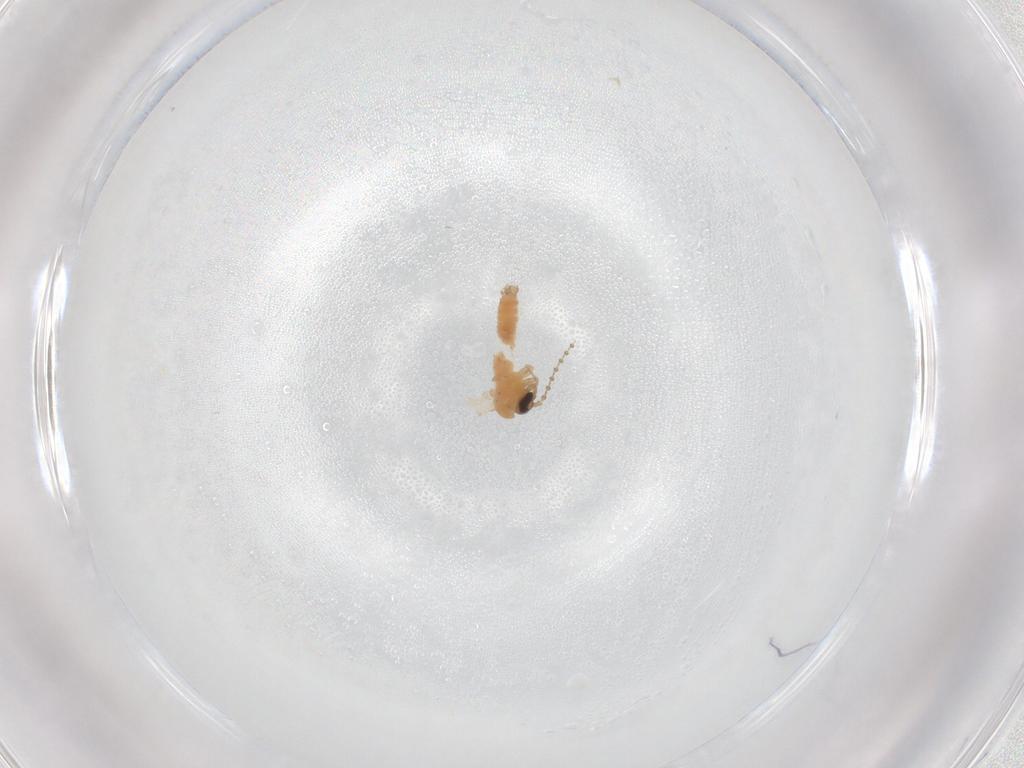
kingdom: Animalia
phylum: Arthropoda
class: Insecta
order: Diptera
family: Psychodidae
